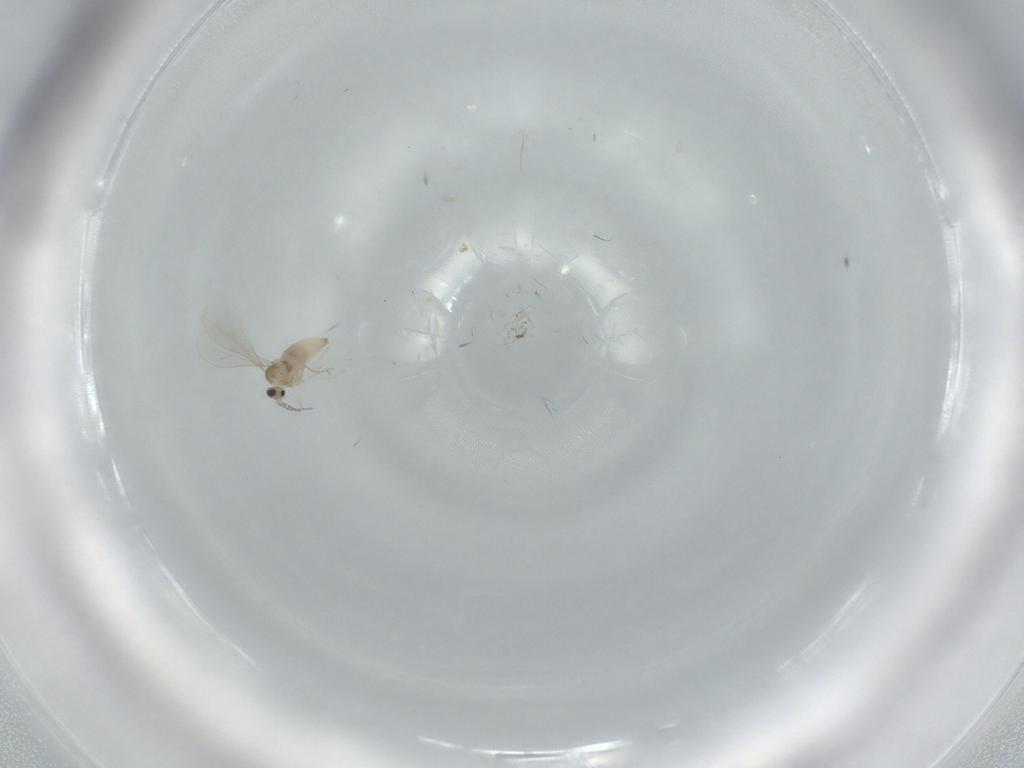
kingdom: Animalia
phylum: Arthropoda
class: Insecta
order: Diptera
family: Cecidomyiidae
